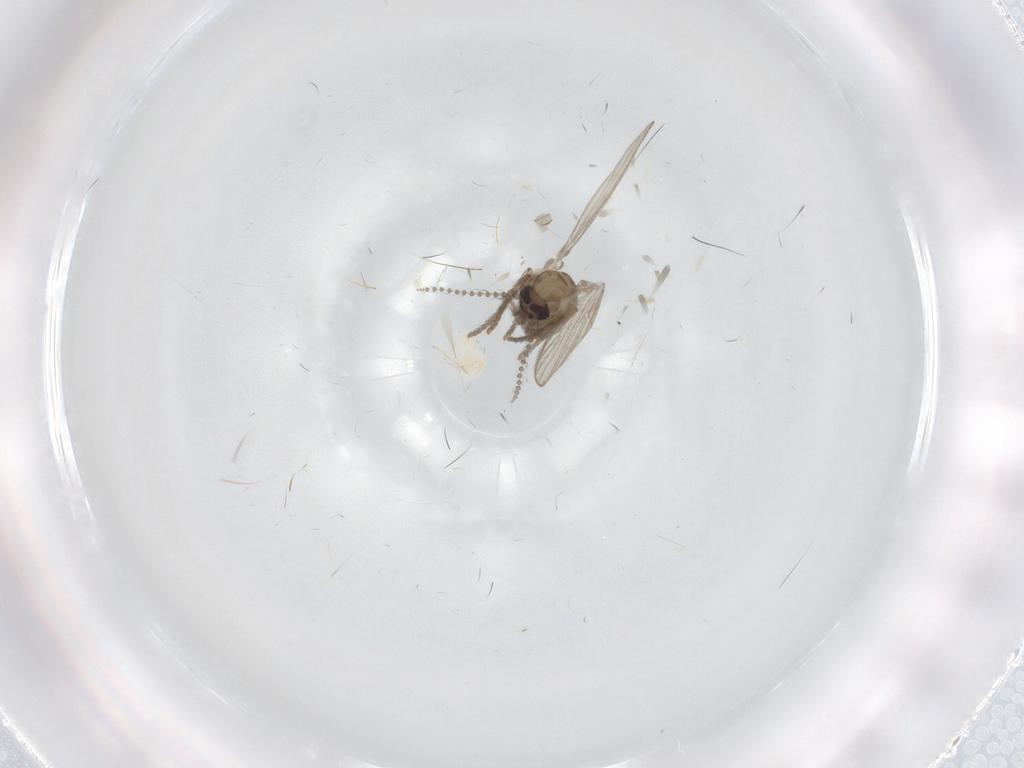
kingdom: Animalia
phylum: Arthropoda
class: Insecta
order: Diptera
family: Psychodidae
